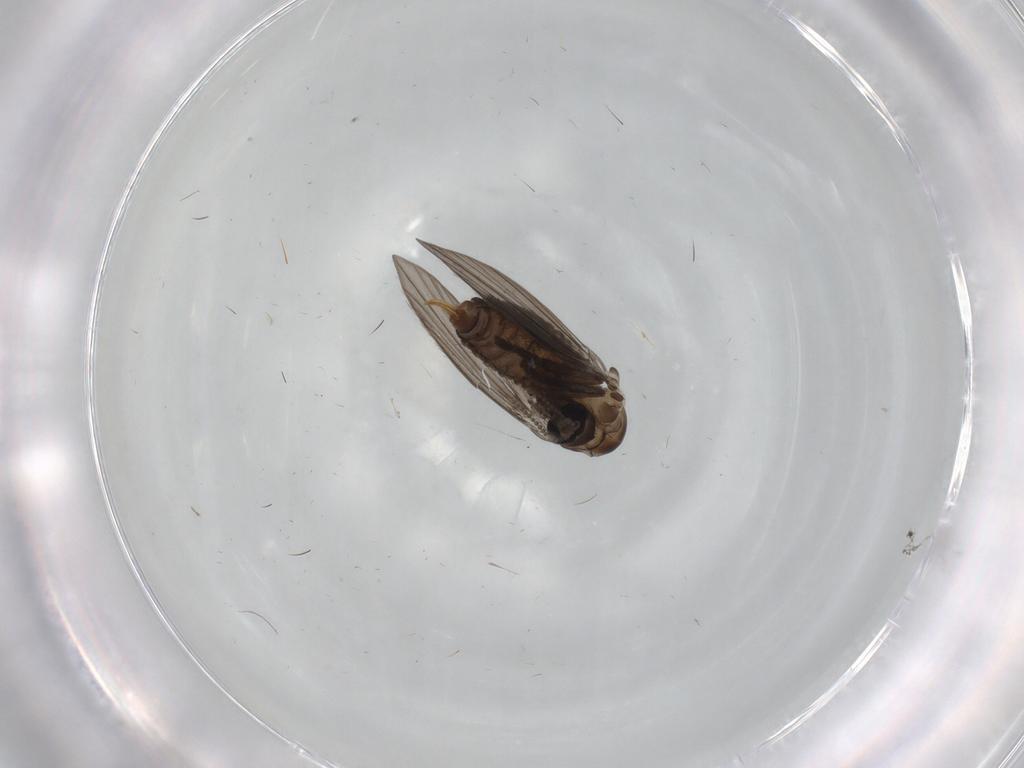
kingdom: Animalia
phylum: Arthropoda
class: Insecta
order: Diptera
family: Psychodidae
